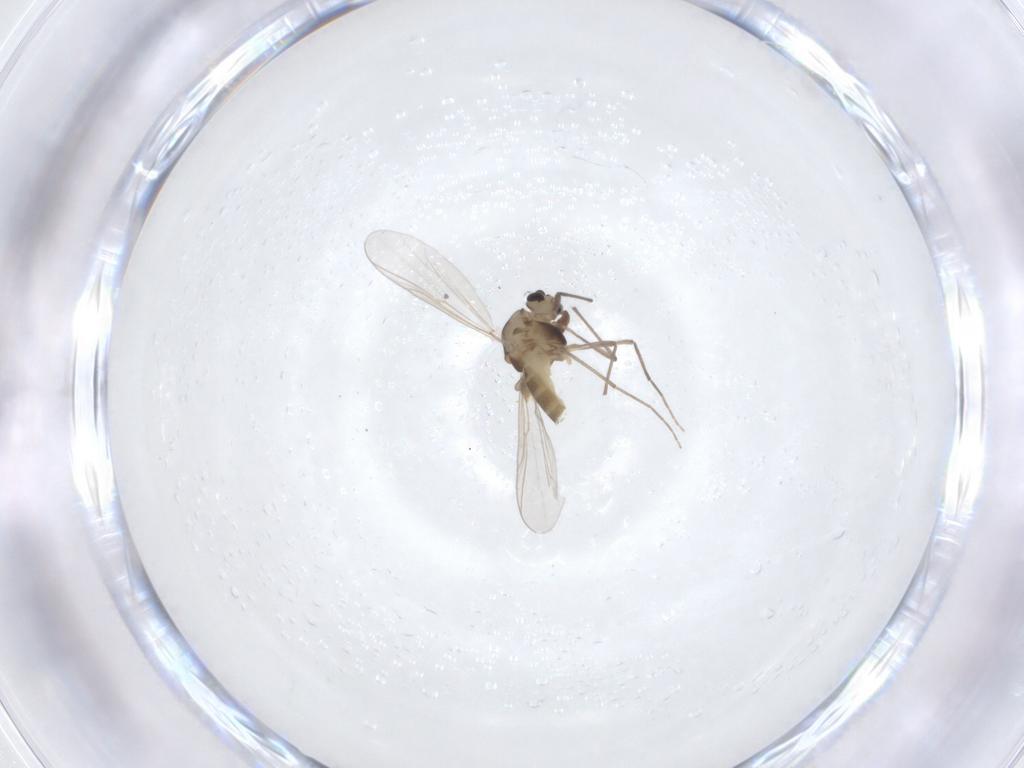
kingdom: Animalia
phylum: Arthropoda
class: Insecta
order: Diptera
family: Chironomidae
